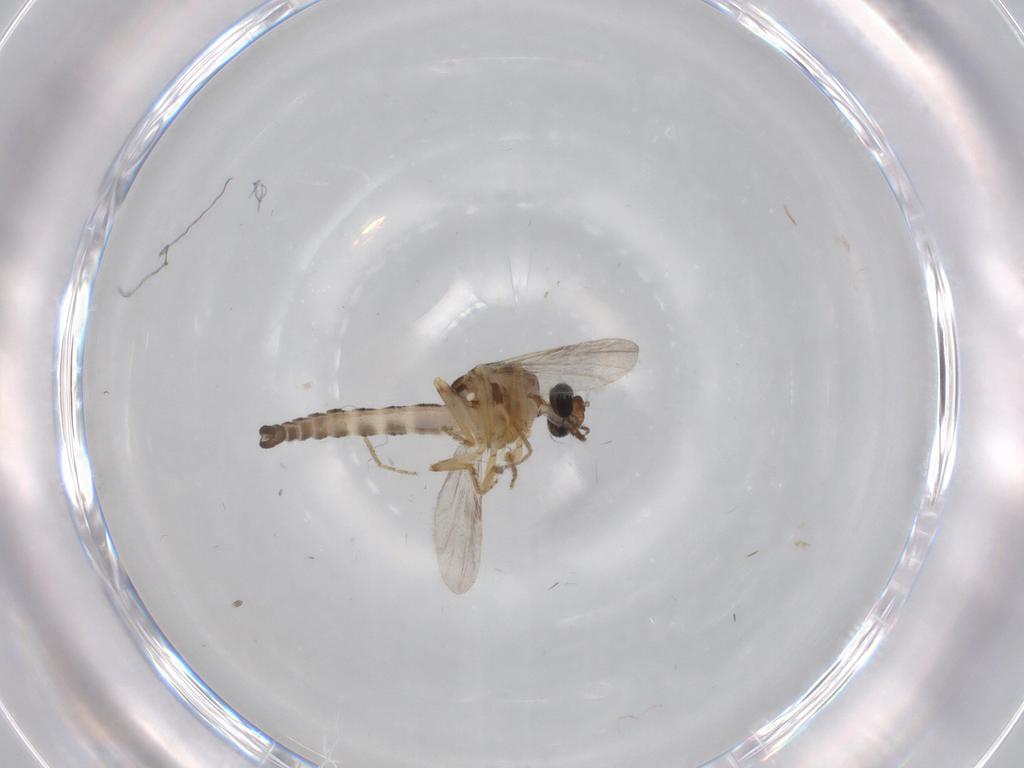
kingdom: Animalia
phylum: Arthropoda
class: Insecta
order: Diptera
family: Ceratopogonidae
